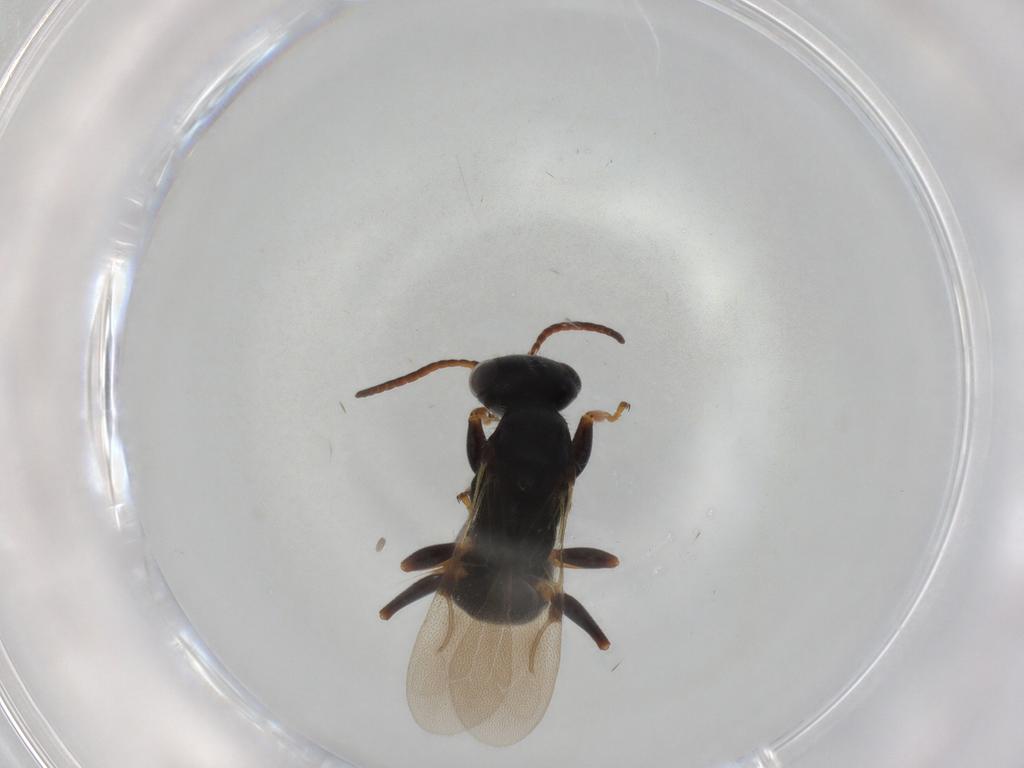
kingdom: Animalia
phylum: Arthropoda
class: Insecta
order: Hymenoptera
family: Bethylidae
